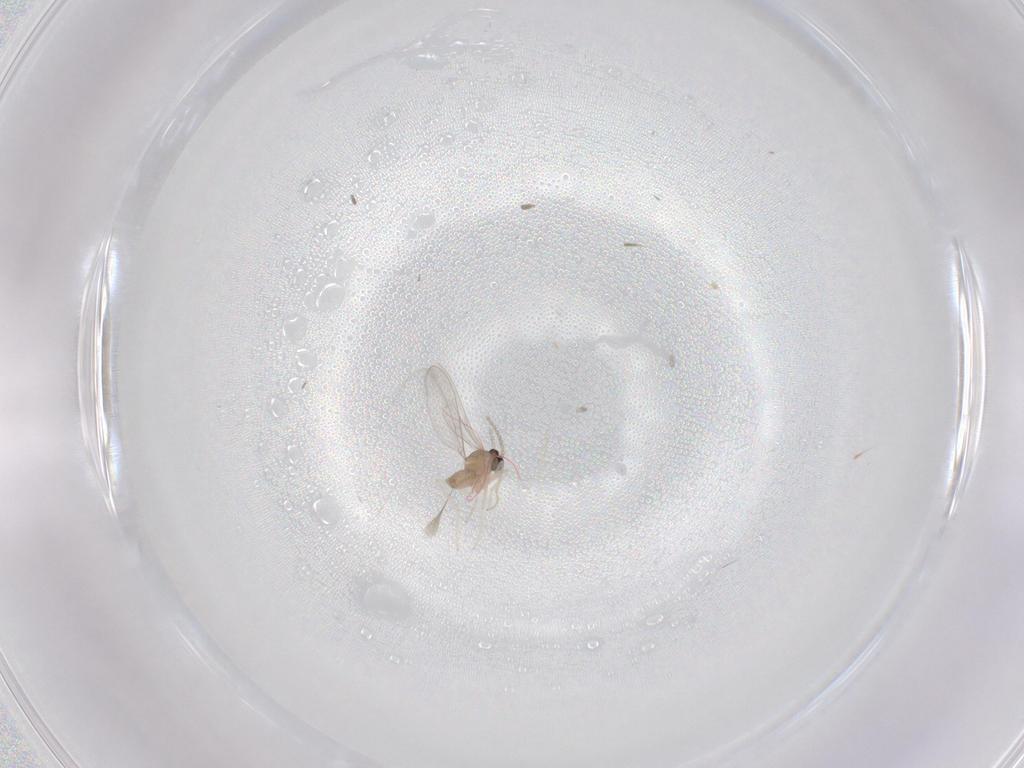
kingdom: Animalia
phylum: Arthropoda
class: Insecta
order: Diptera
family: Cecidomyiidae
